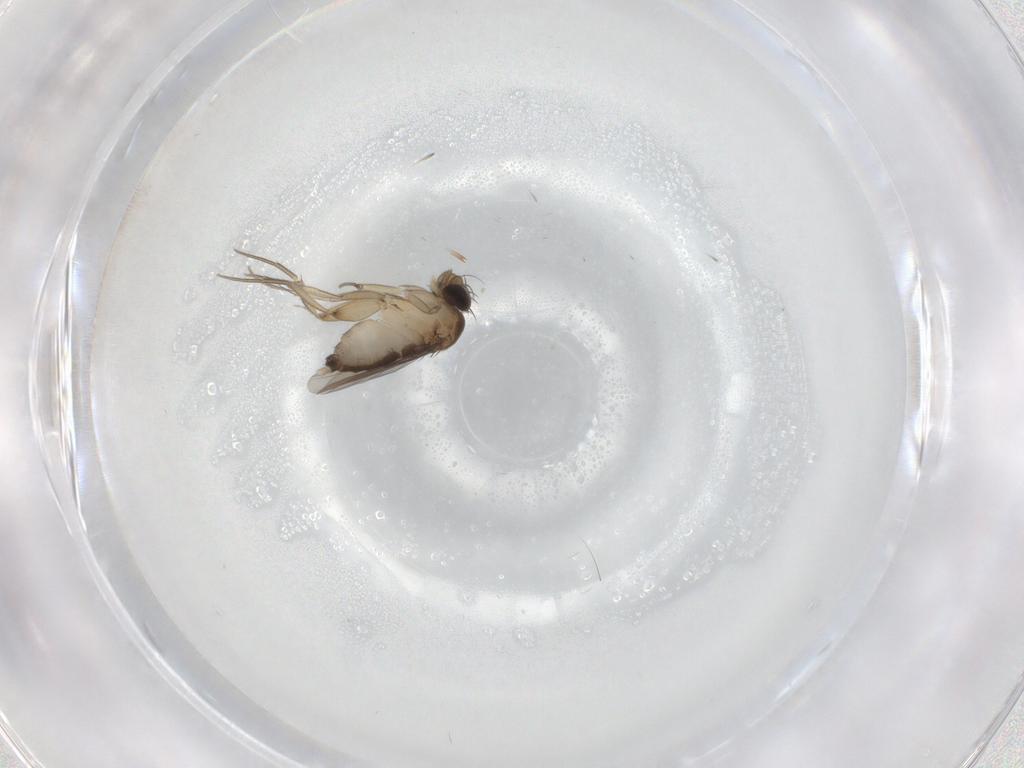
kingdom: Animalia
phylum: Arthropoda
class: Insecta
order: Diptera
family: Phoridae
